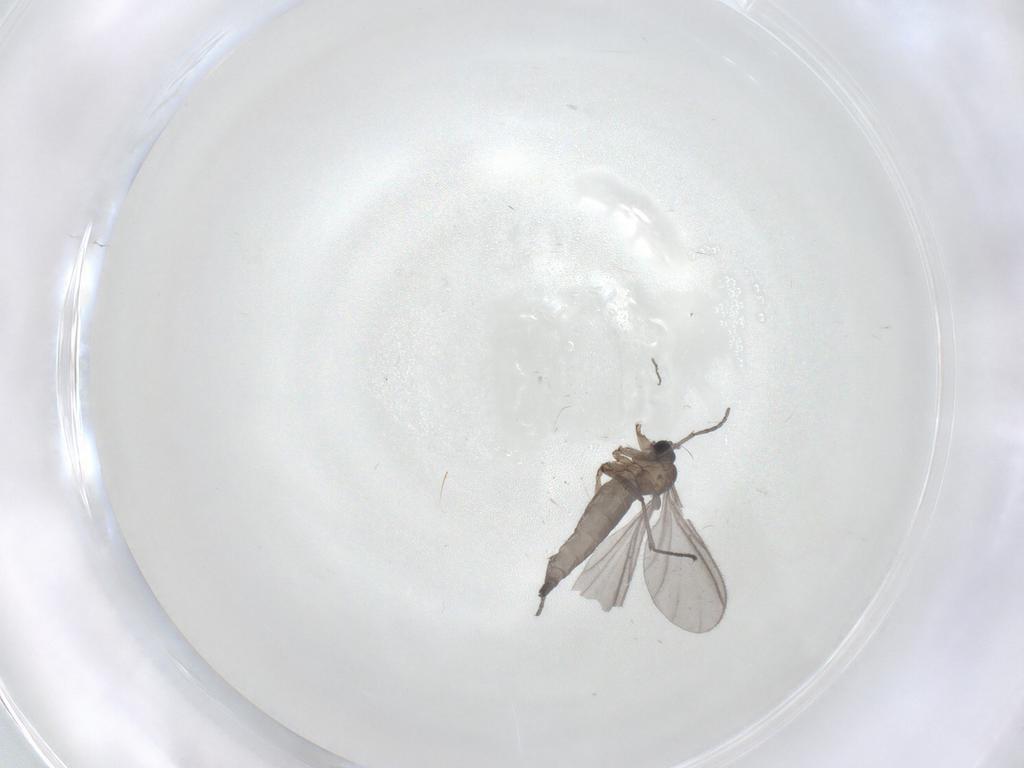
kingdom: Animalia
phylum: Arthropoda
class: Insecta
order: Diptera
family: Sciaridae
